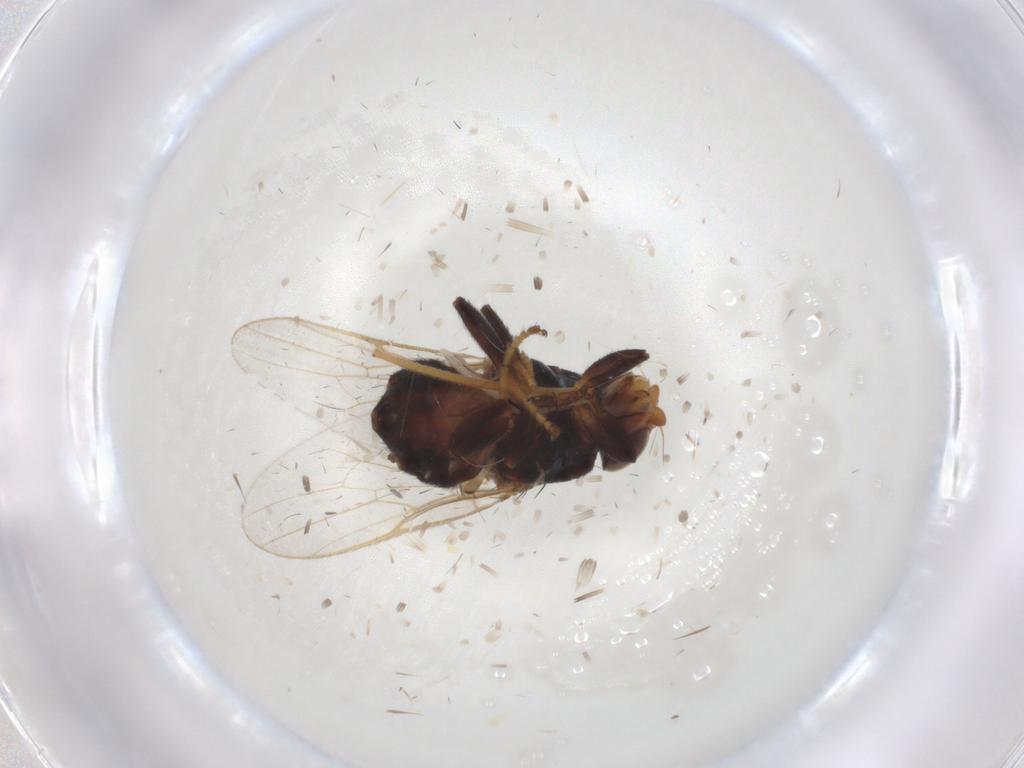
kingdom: Animalia
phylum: Arthropoda
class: Insecta
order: Diptera
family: Chloropidae
